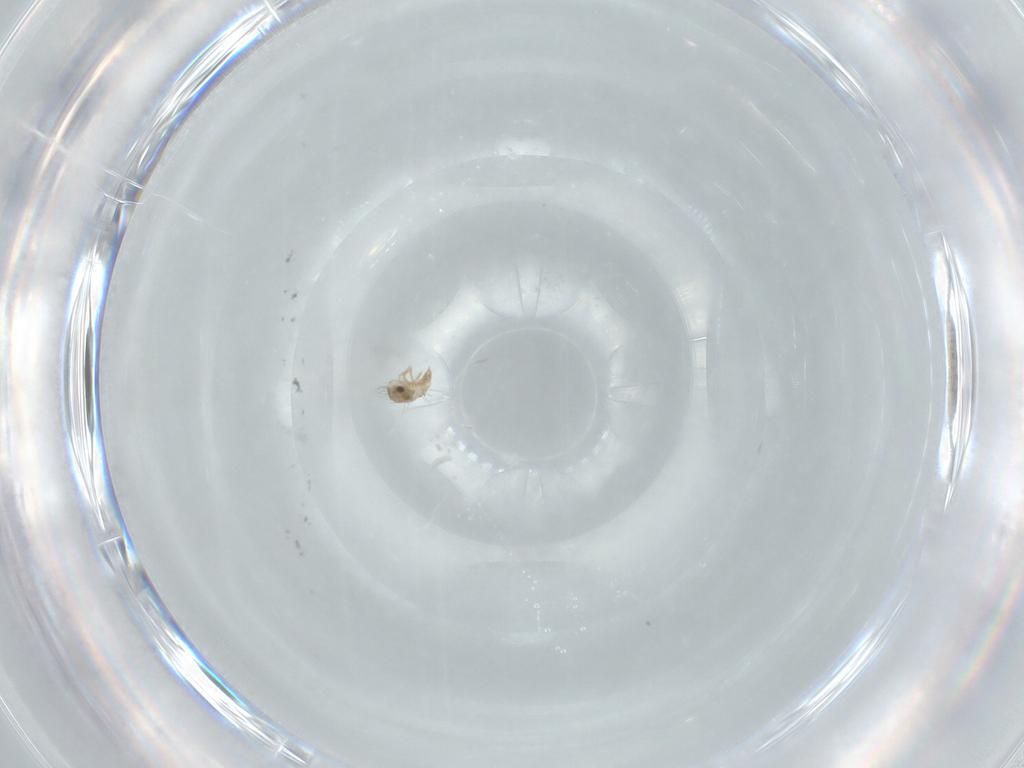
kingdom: Animalia
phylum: Arthropoda
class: Arachnida
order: Sarcoptiformes
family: Humerobatidae
